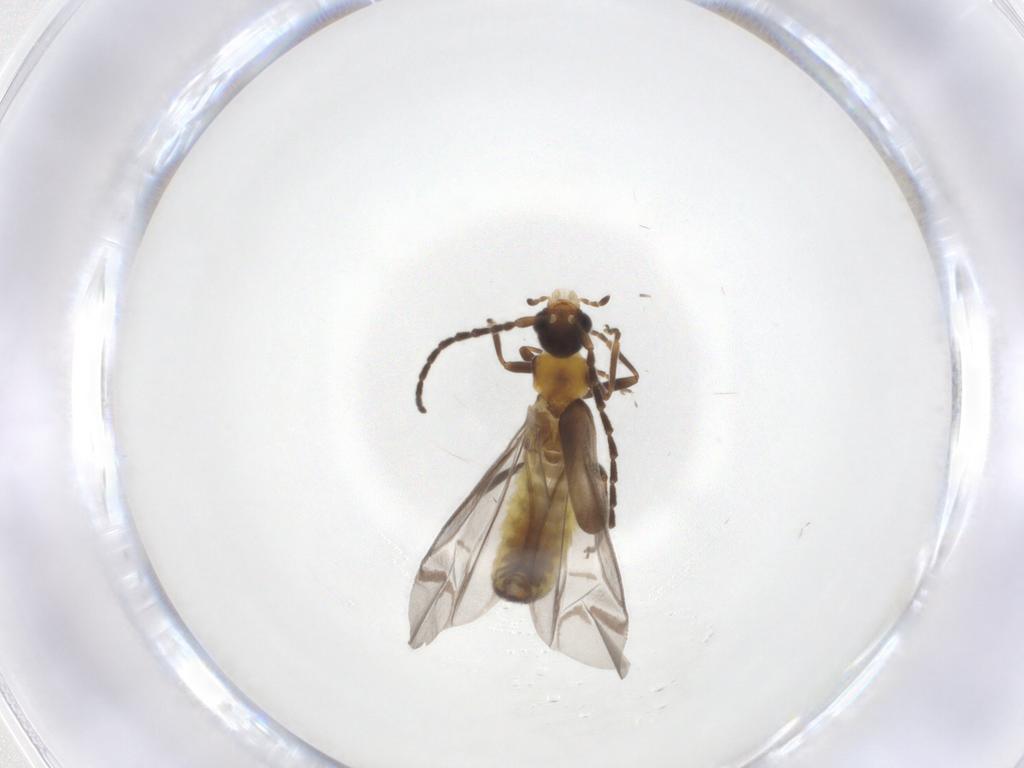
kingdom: Animalia
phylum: Arthropoda
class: Insecta
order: Coleoptera
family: Cantharidae
